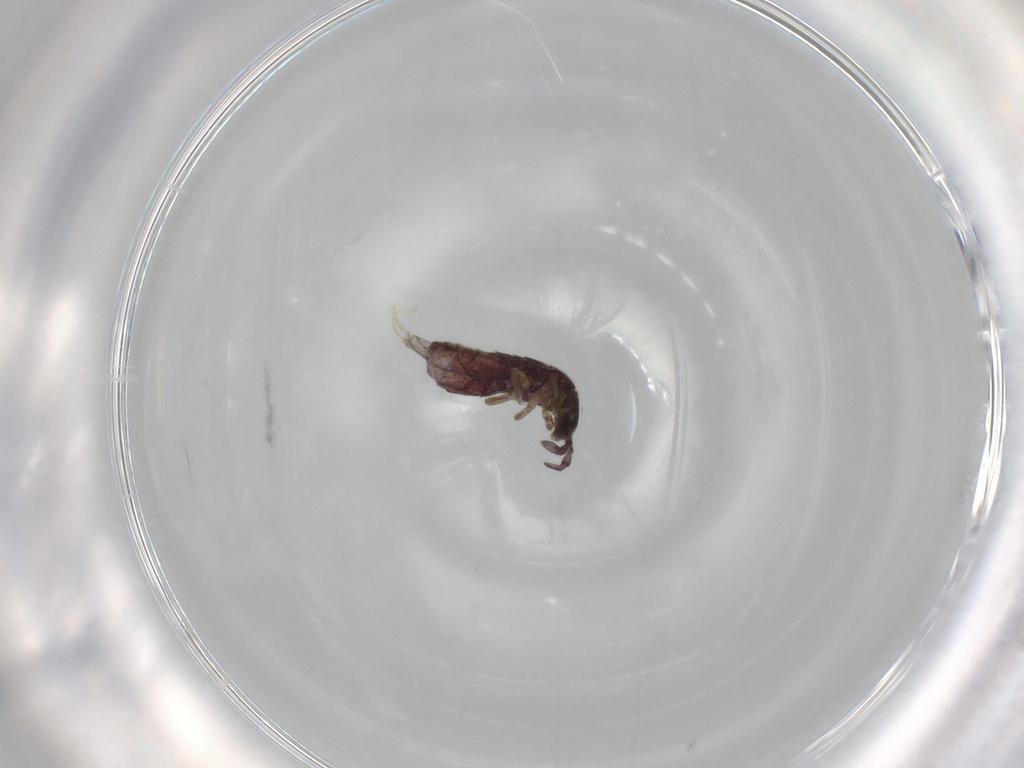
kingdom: Animalia
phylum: Arthropoda
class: Collembola
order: Entomobryomorpha
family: Isotomidae
